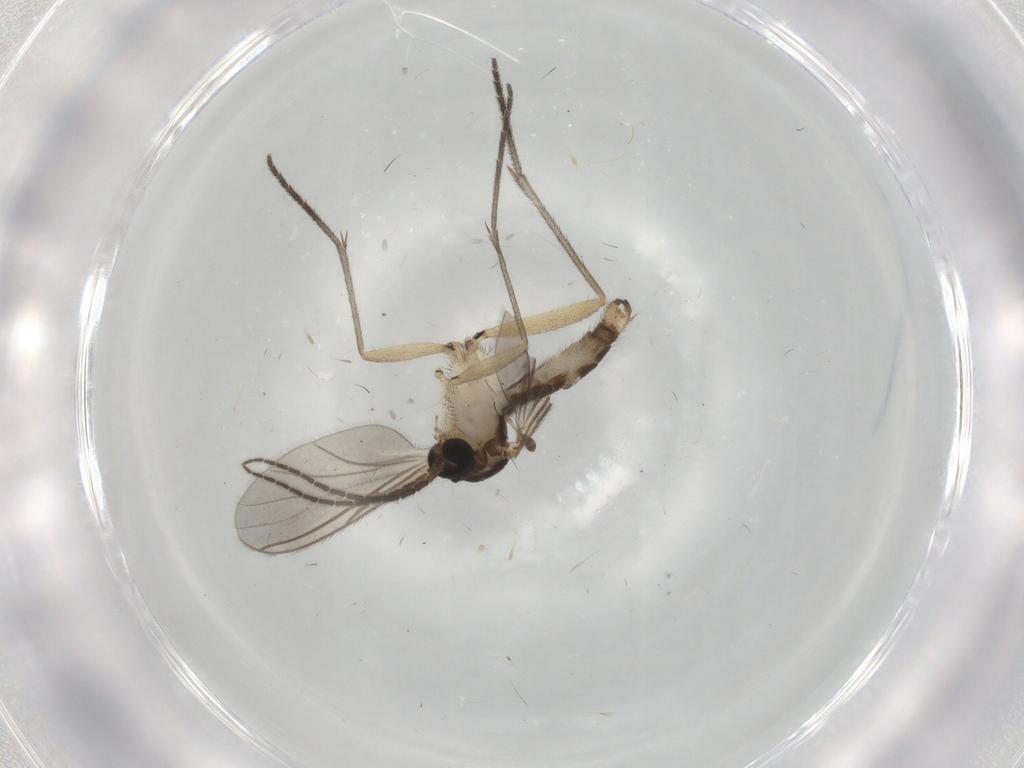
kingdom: Animalia
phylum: Arthropoda
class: Insecta
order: Diptera
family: Sciaridae
